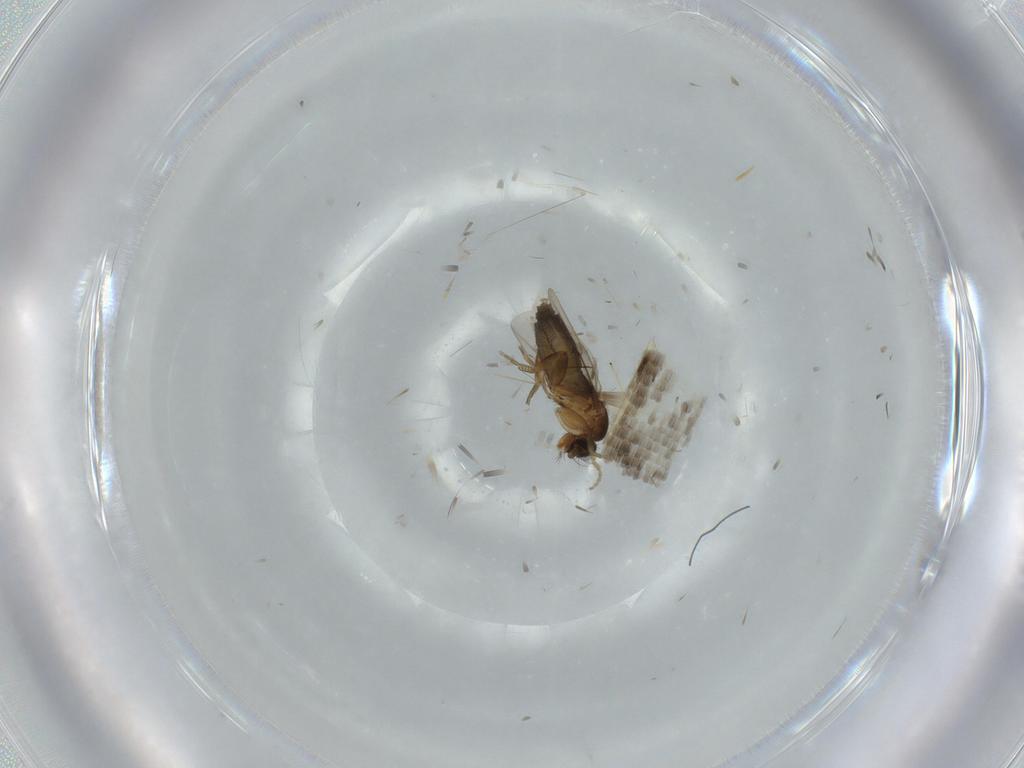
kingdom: Animalia
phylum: Arthropoda
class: Insecta
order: Diptera
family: Phoridae
